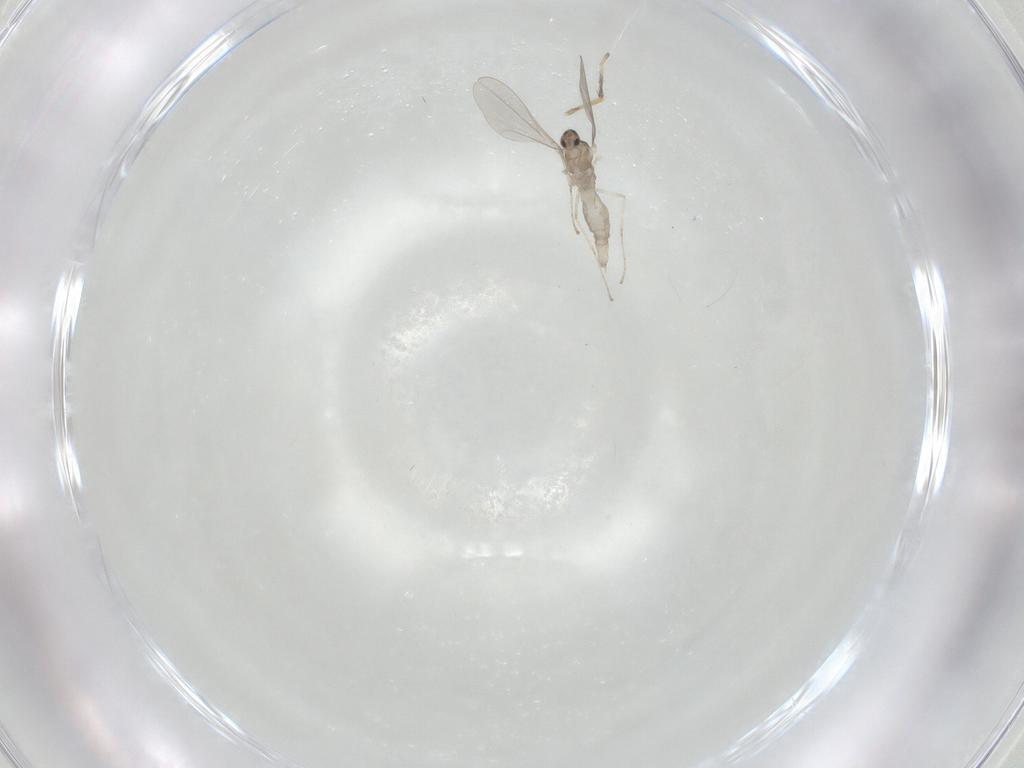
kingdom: Animalia
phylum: Arthropoda
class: Insecta
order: Diptera
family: Cecidomyiidae
